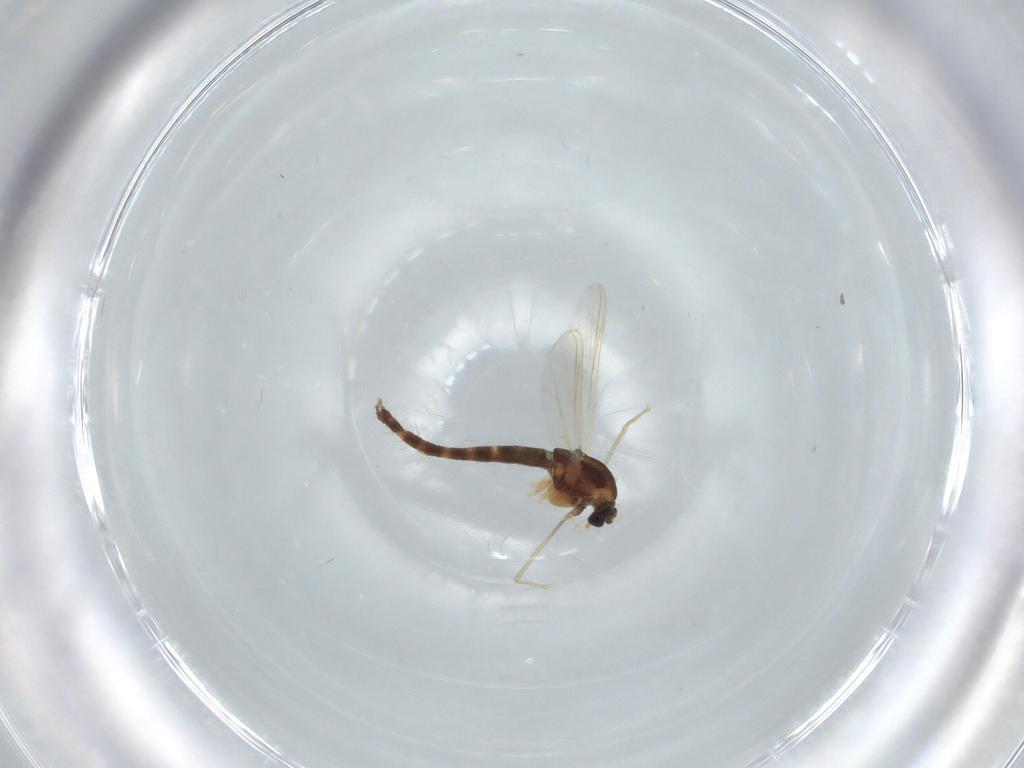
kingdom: Animalia
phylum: Arthropoda
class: Insecta
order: Diptera
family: Chironomidae
